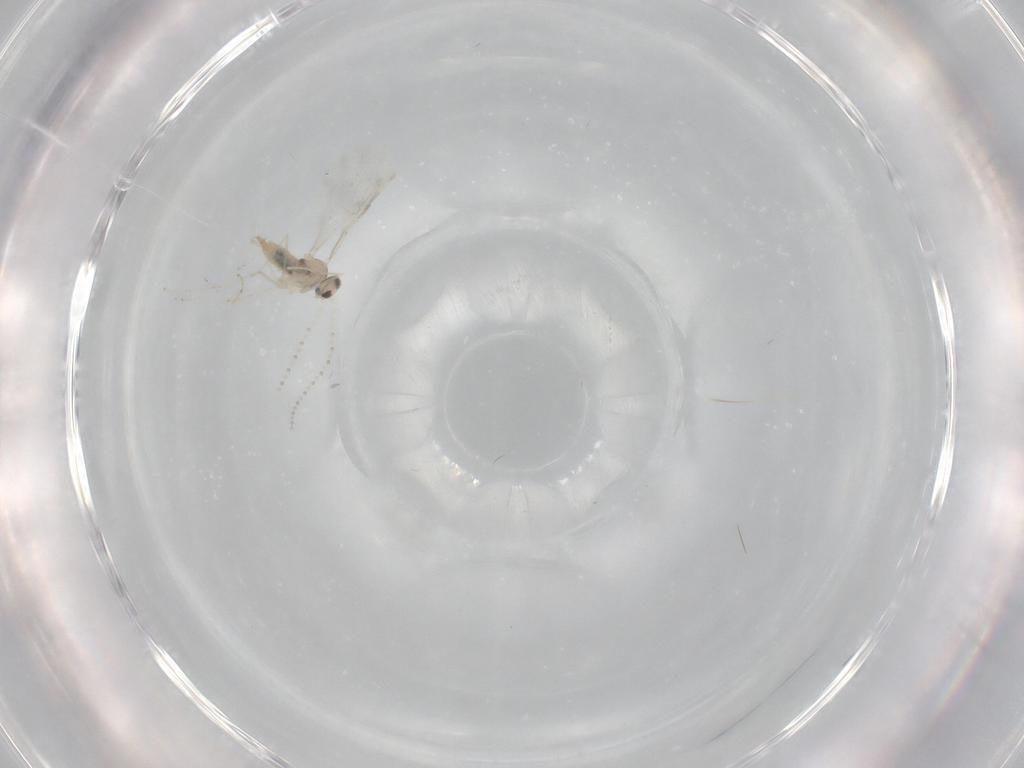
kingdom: Animalia
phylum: Arthropoda
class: Insecta
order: Diptera
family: Cecidomyiidae
